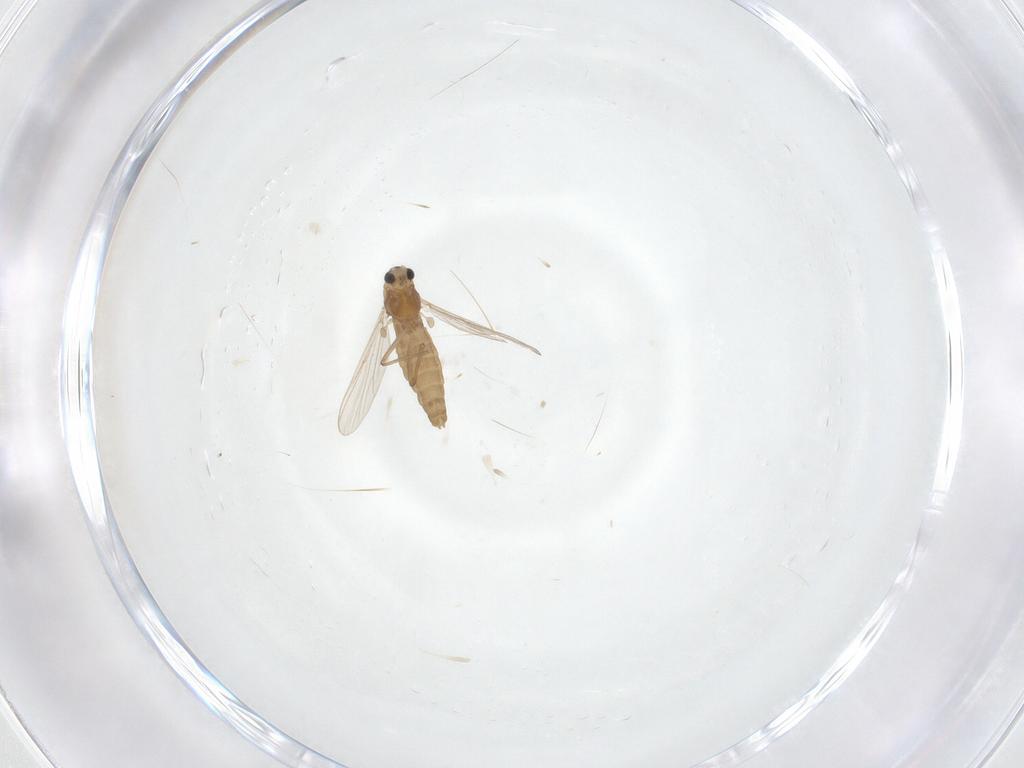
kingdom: Animalia
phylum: Arthropoda
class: Insecta
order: Diptera
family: Chironomidae
